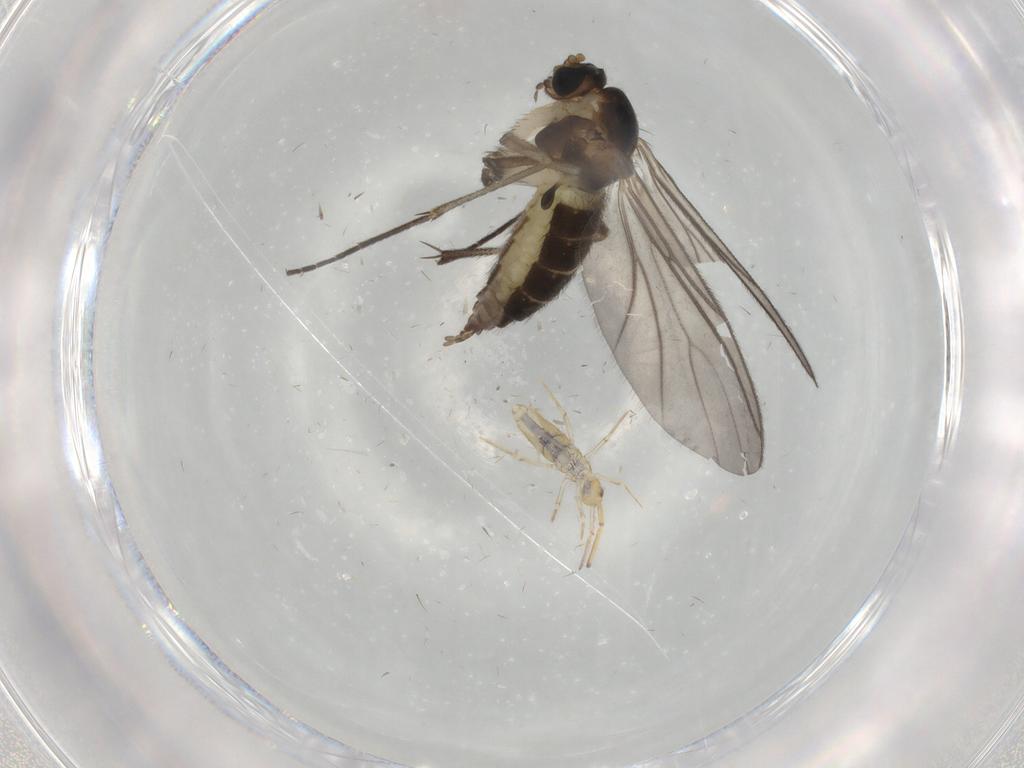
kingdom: Animalia
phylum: Arthropoda
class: Insecta
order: Diptera
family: Sciaridae
